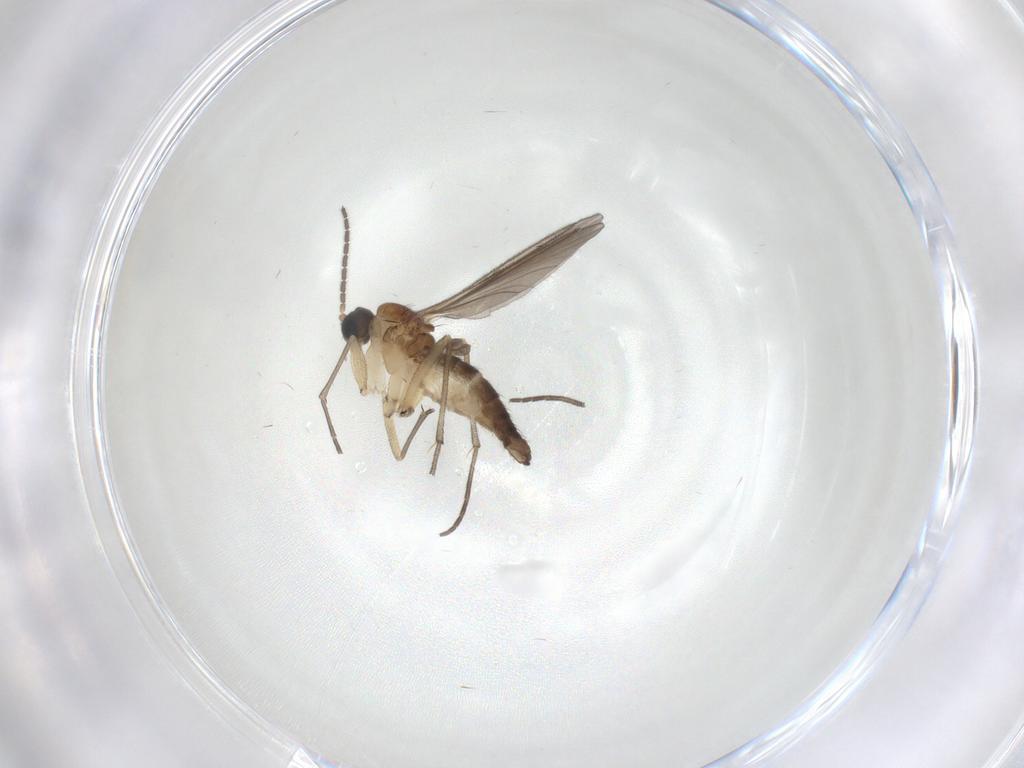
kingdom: Animalia
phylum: Arthropoda
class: Insecta
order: Diptera
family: Sciaridae
